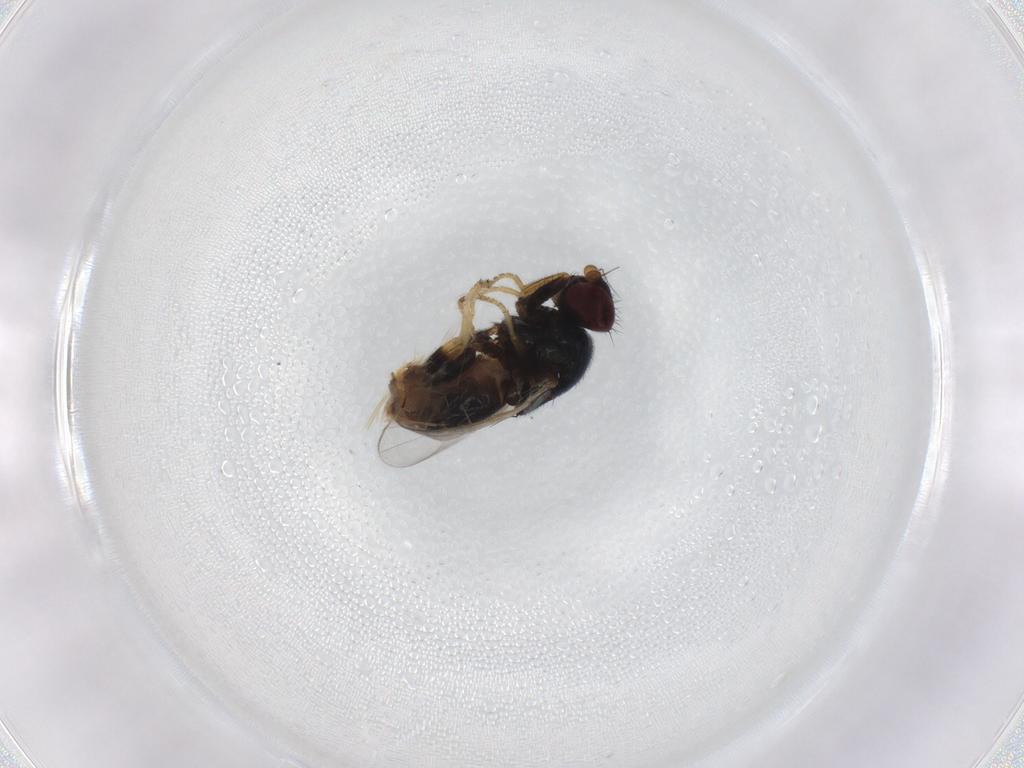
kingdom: Animalia
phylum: Arthropoda
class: Insecta
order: Diptera
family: Chloropidae
